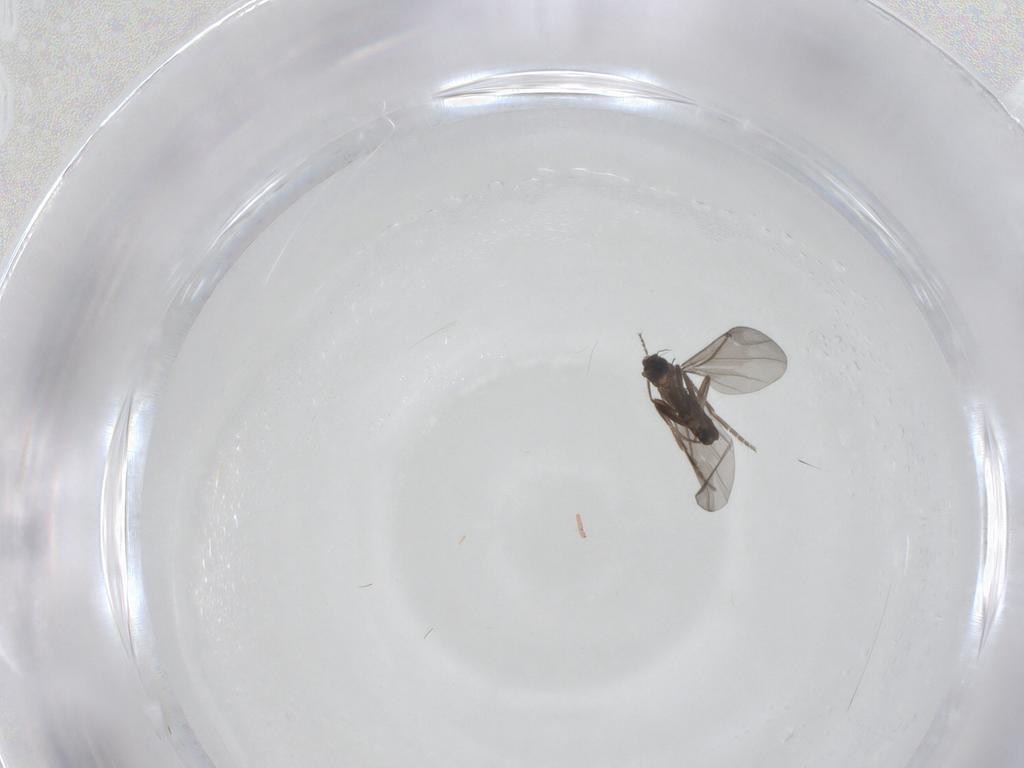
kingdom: Animalia
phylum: Arthropoda
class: Insecta
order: Diptera
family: Phoridae
